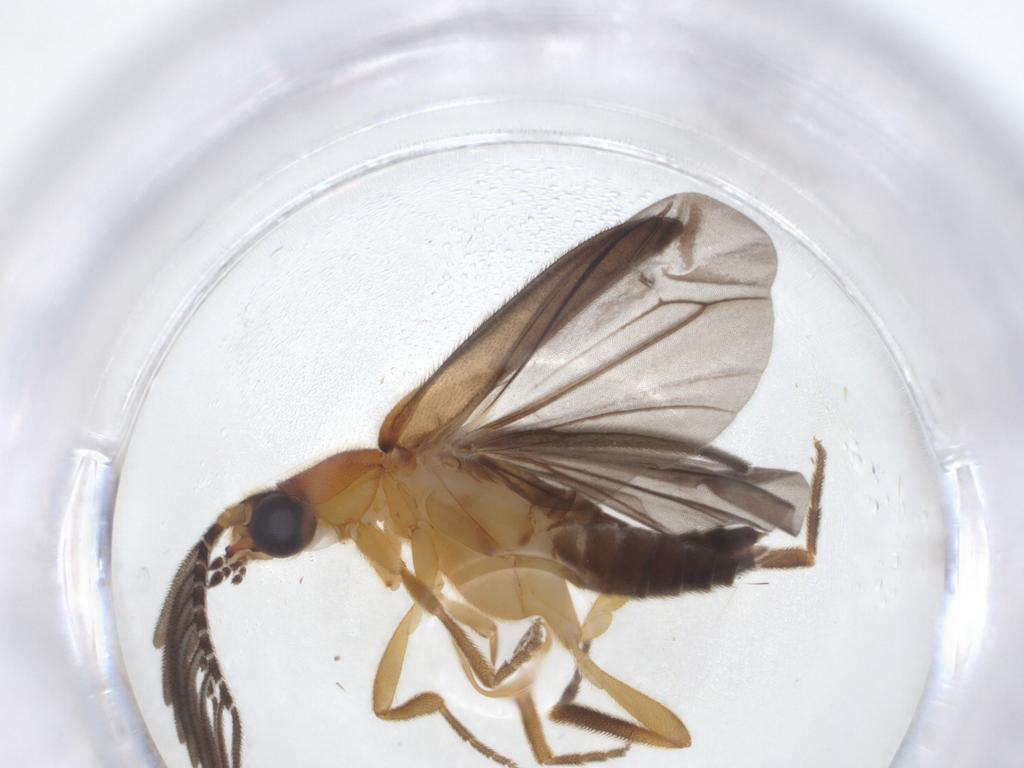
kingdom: Animalia
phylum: Arthropoda
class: Insecta
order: Coleoptera
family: Lampyridae
